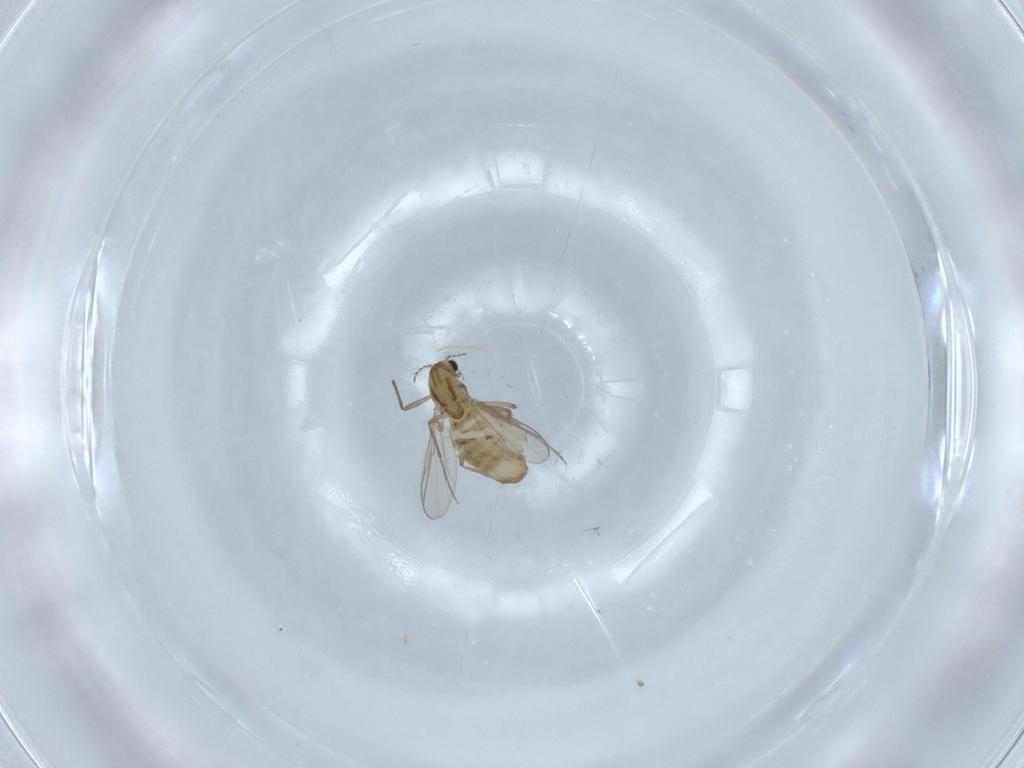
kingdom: Animalia
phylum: Arthropoda
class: Insecta
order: Diptera
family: Chironomidae
